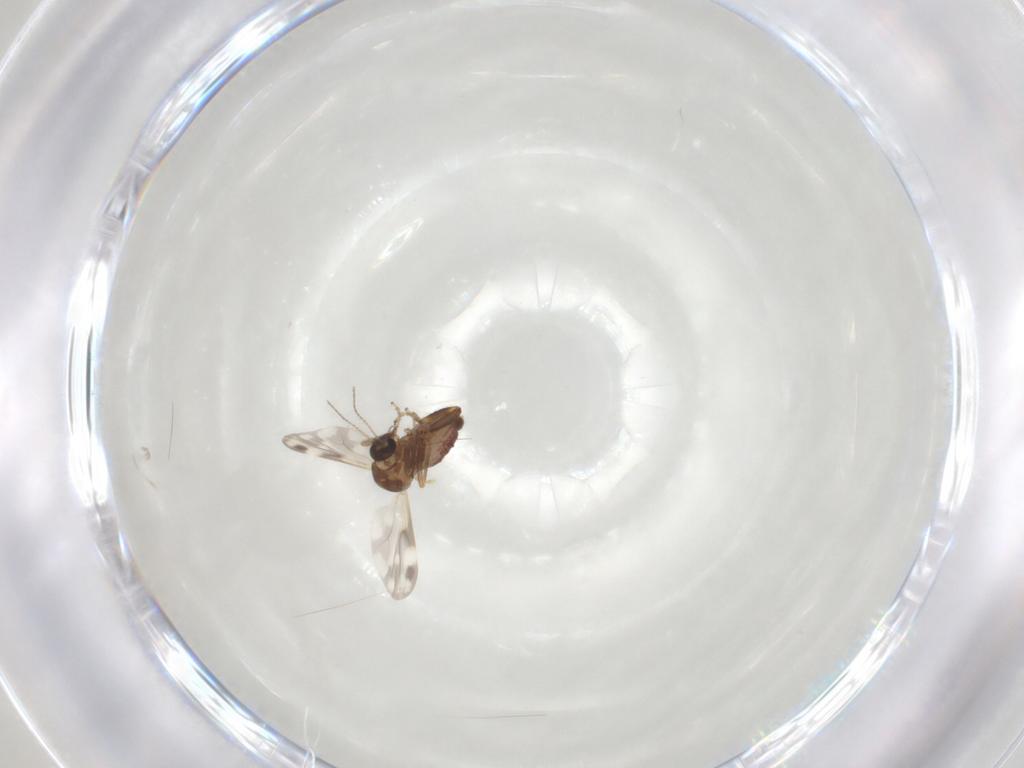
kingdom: Animalia
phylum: Arthropoda
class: Insecta
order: Diptera
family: Ceratopogonidae
